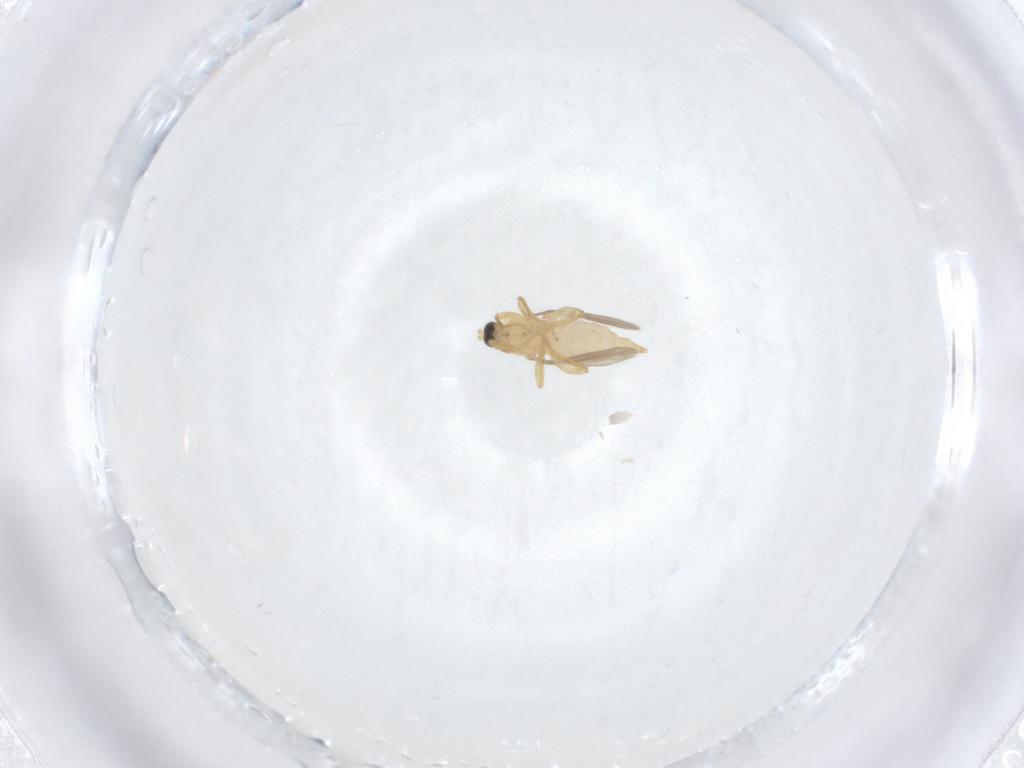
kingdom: Animalia
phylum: Arthropoda
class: Insecta
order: Diptera
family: Hybotidae
